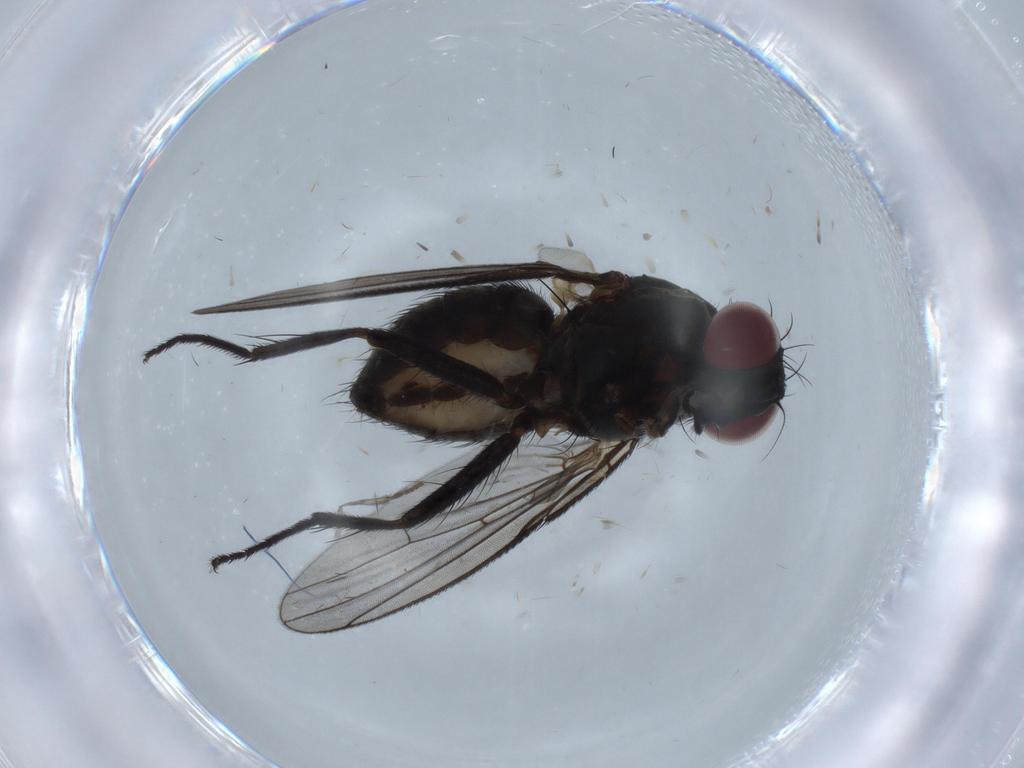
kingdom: Animalia
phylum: Arthropoda
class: Insecta
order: Diptera
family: Muscidae
